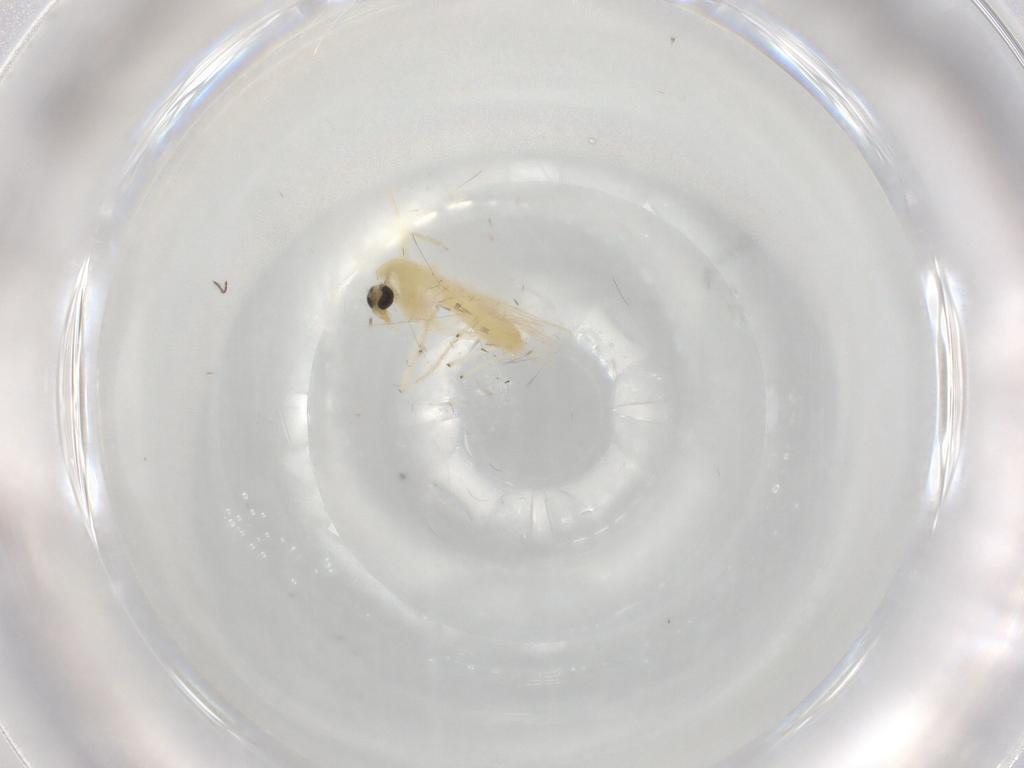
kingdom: Animalia
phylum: Arthropoda
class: Insecta
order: Diptera
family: Chironomidae
